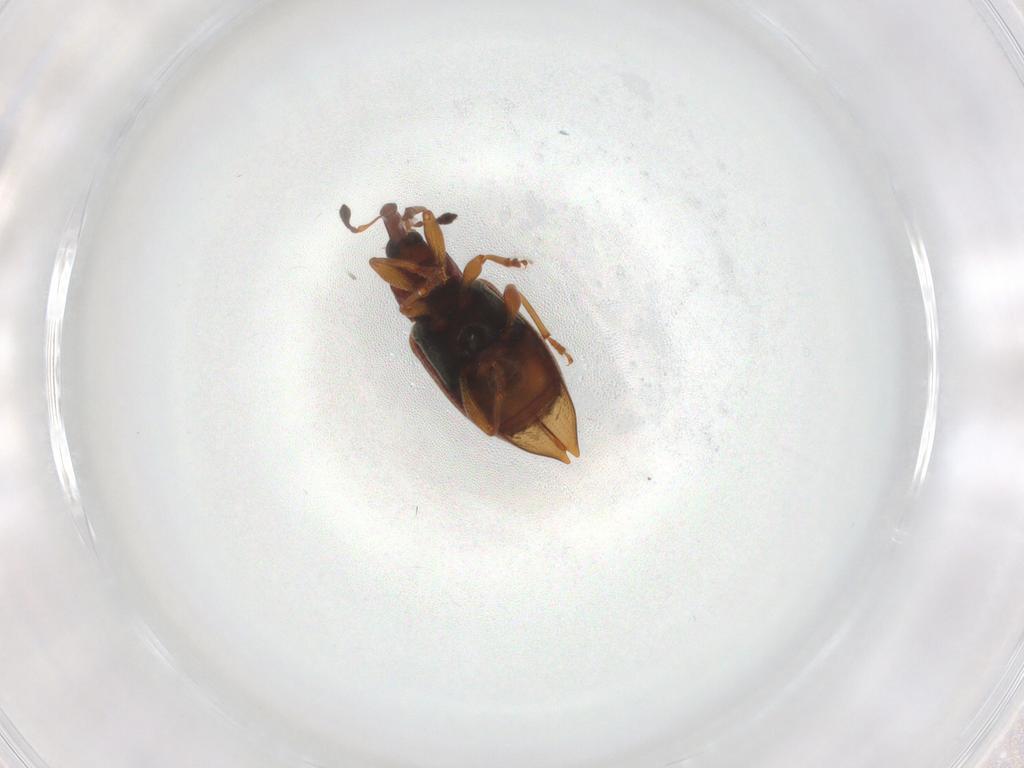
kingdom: Animalia
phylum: Arthropoda
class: Insecta
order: Coleoptera
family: Curculionidae
